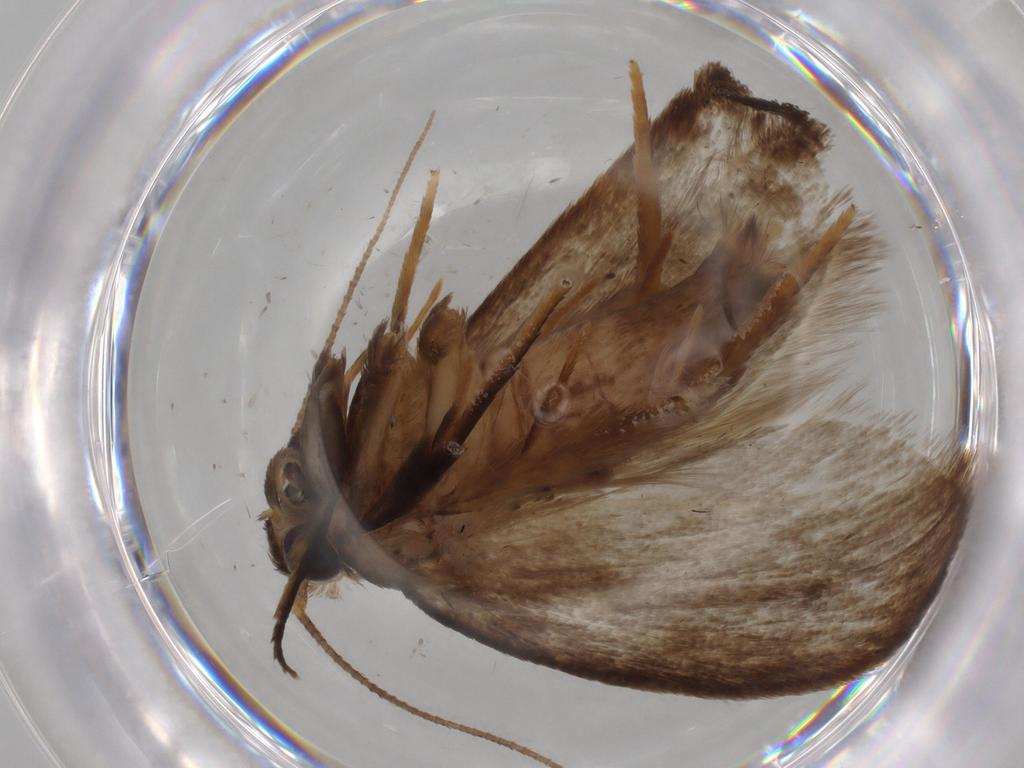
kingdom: Animalia
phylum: Arthropoda
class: Insecta
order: Lepidoptera
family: Oecophoridae
